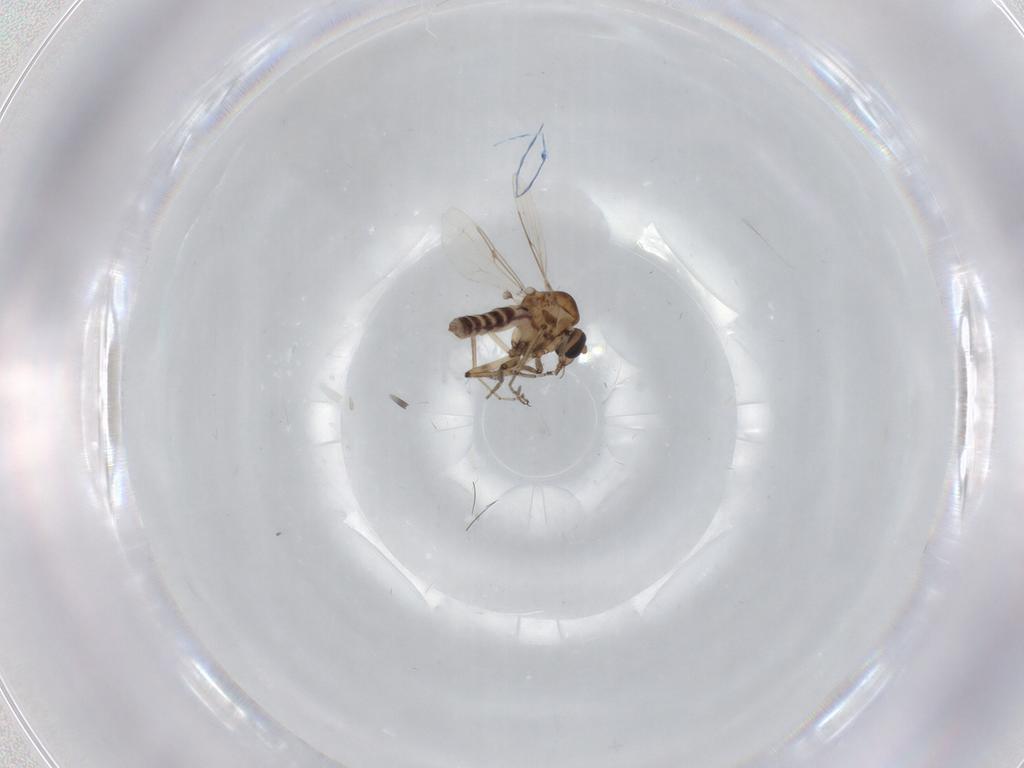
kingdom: Animalia
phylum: Arthropoda
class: Insecta
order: Diptera
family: Ceratopogonidae
